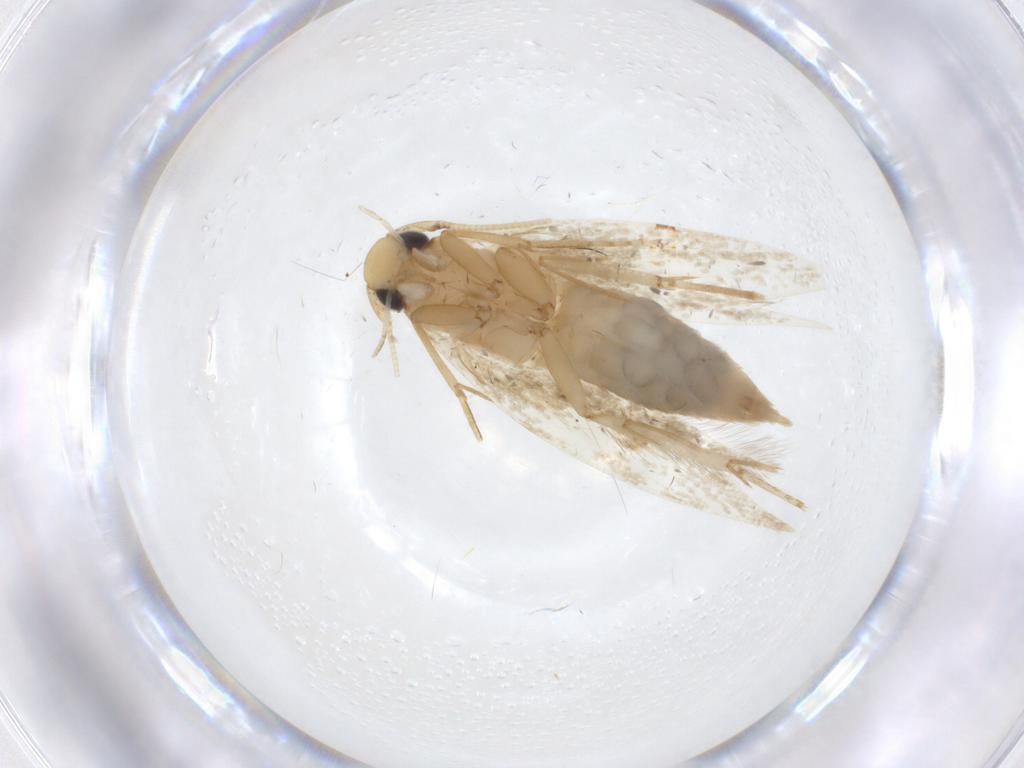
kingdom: Animalia
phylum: Arthropoda
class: Insecta
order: Lepidoptera
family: Tineidae
